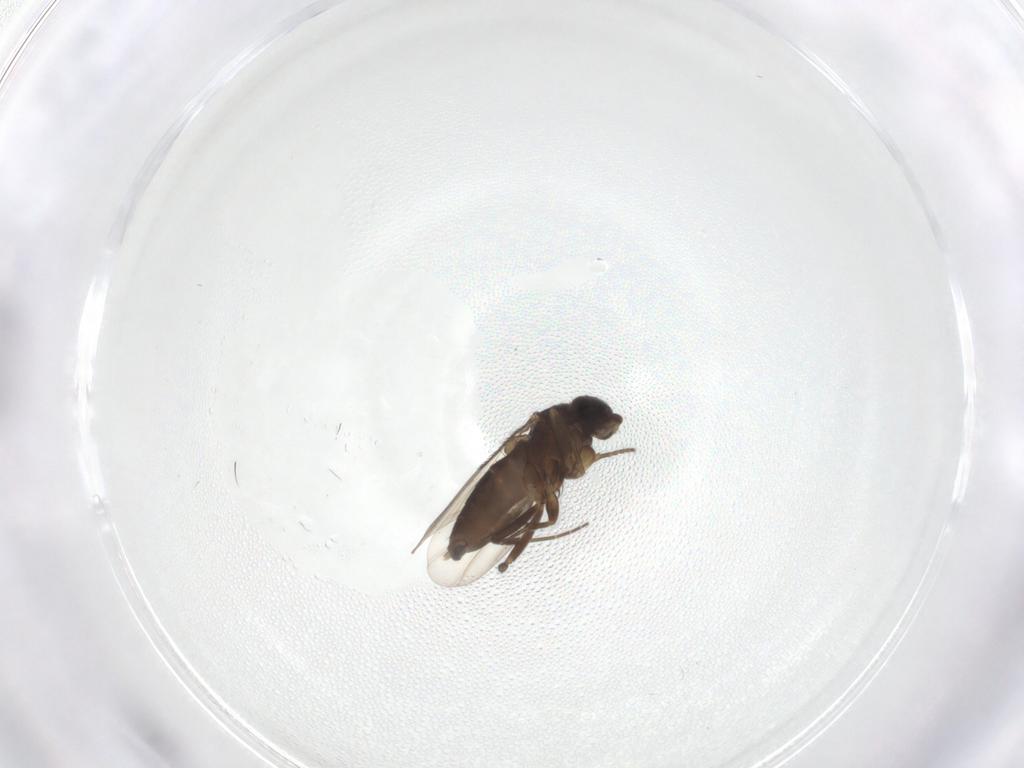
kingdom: Animalia
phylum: Arthropoda
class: Insecta
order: Diptera
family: Phoridae
